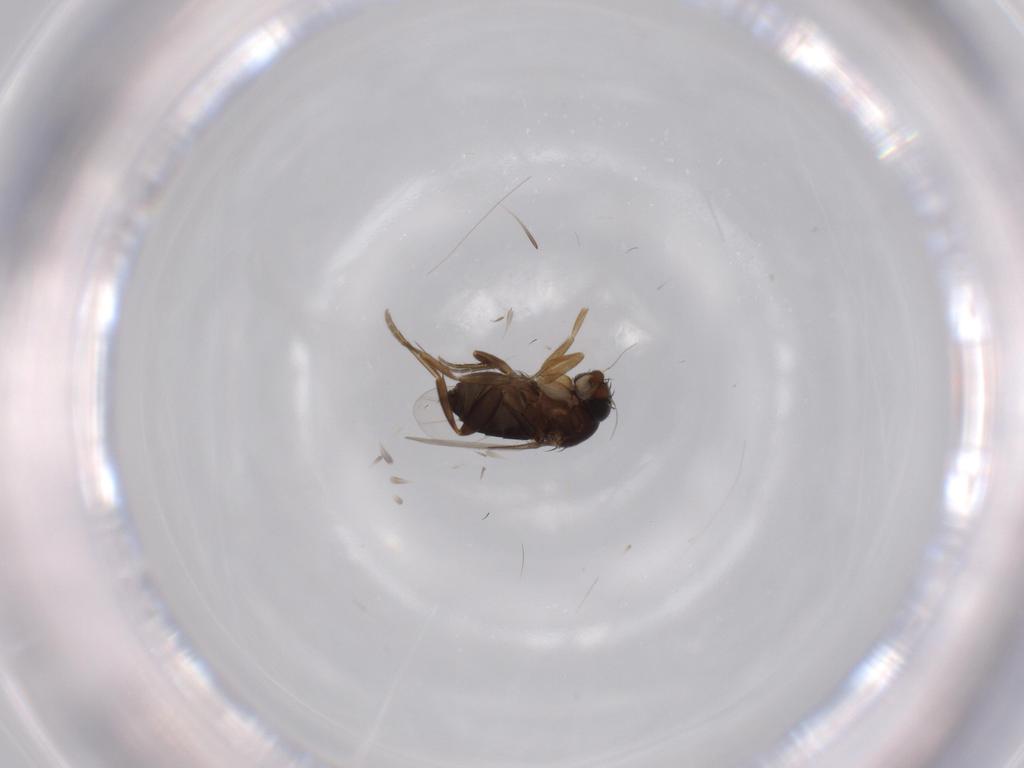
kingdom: Animalia
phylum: Arthropoda
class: Insecta
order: Diptera
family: Phoridae
